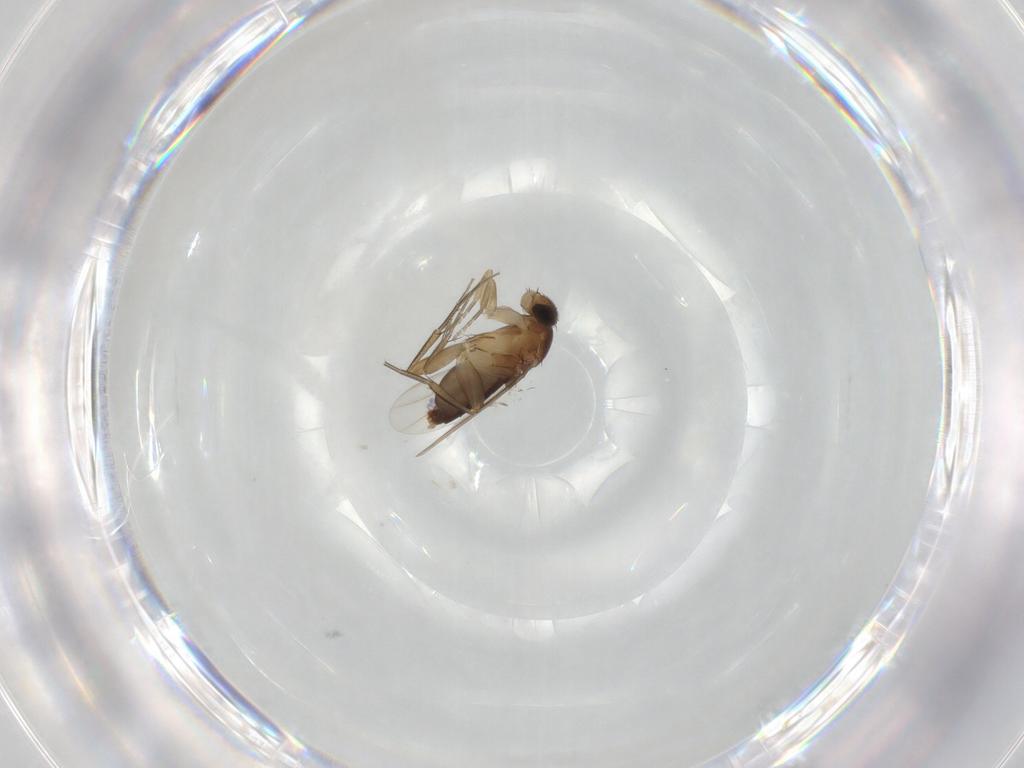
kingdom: Animalia
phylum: Arthropoda
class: Insecta
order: Diptera
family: Phoridae
